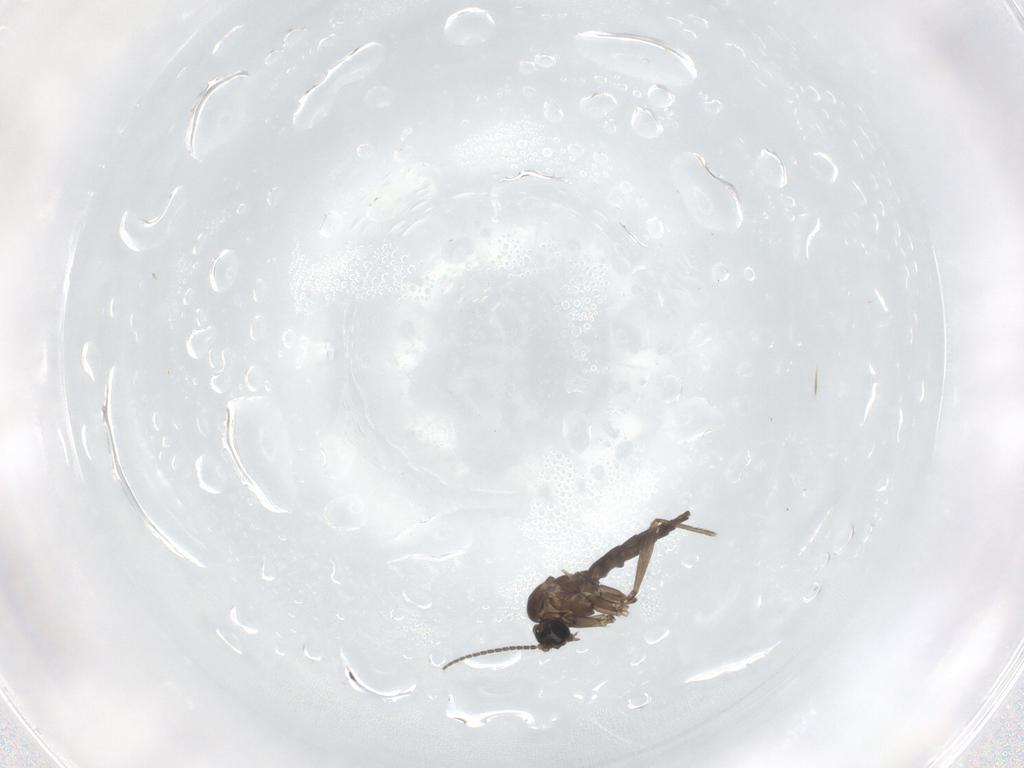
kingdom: Animalia
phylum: Arthropoda
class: Insecta
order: Diptera
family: Sciaridae
